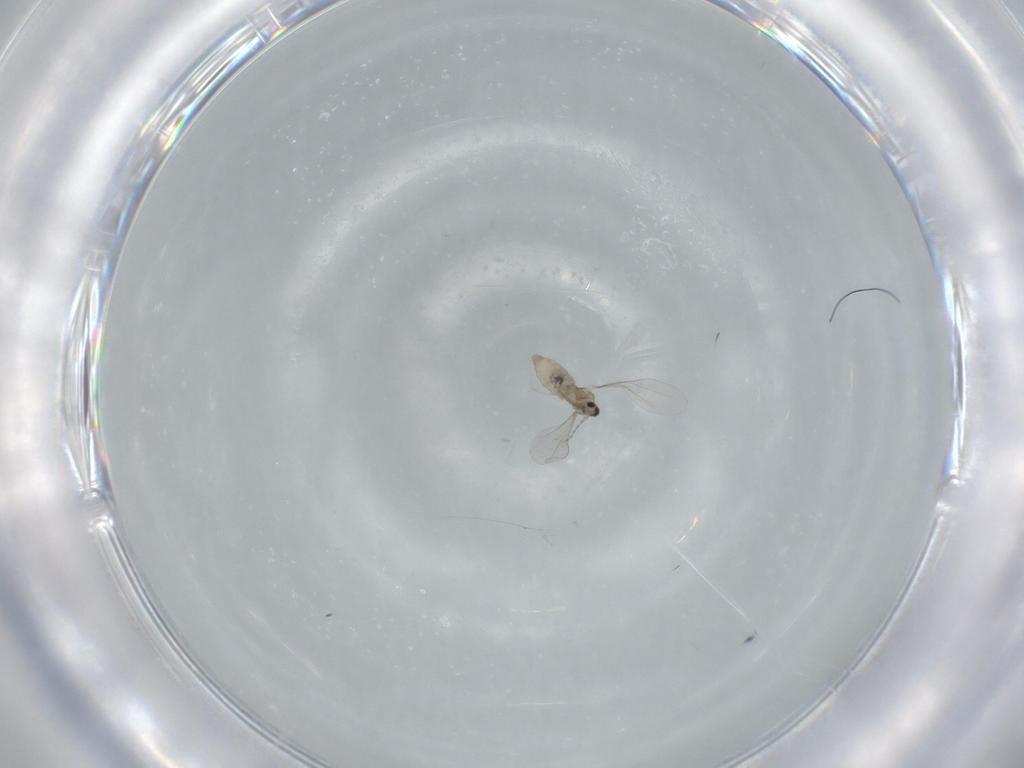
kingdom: Animalia
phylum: Arthropoda
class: Insecta
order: Diptera
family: Cecidomyiidae
